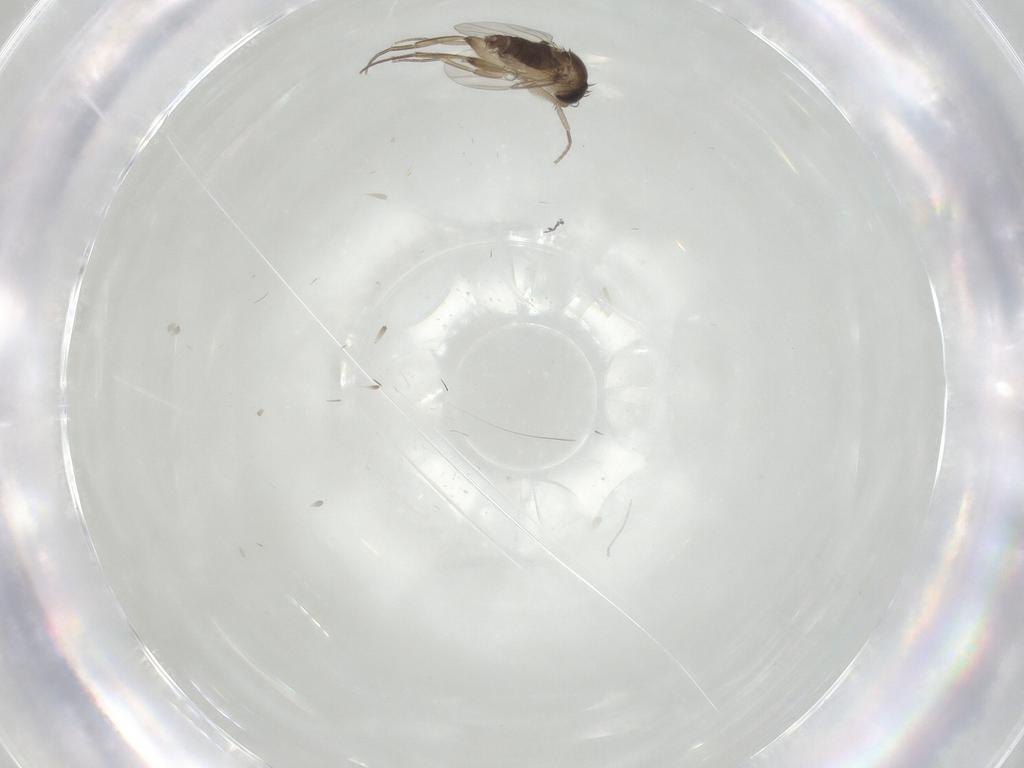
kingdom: Animalia
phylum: Arthropoda
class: Insecta
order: Diptera
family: Phoridae
